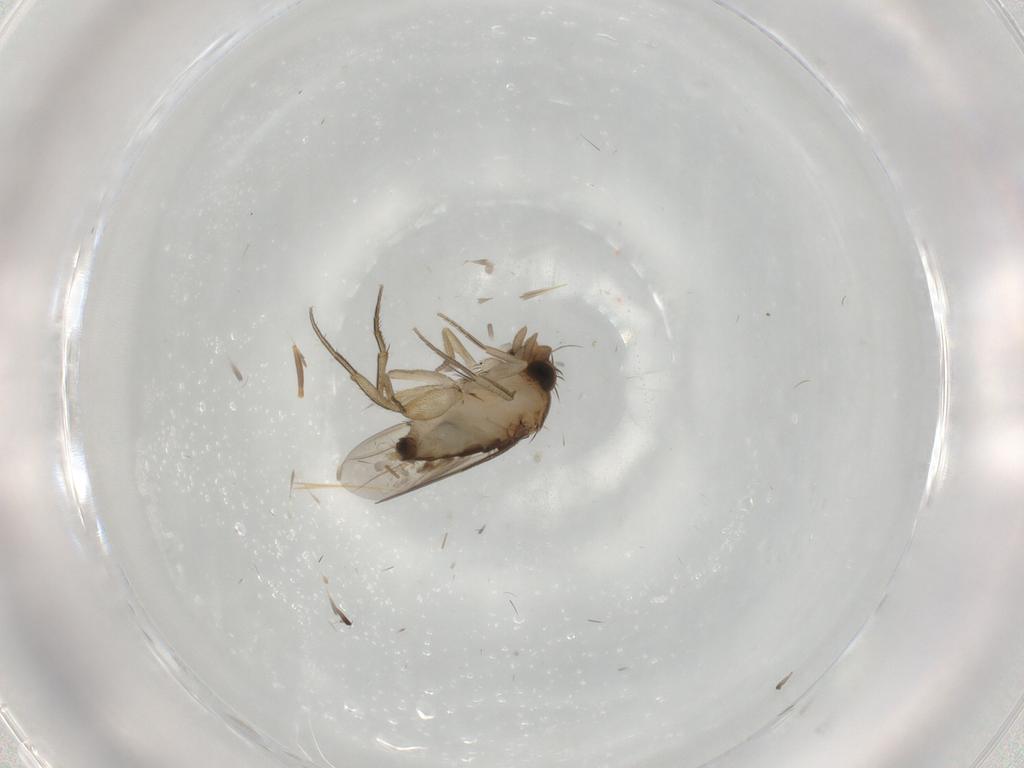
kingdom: Animalia
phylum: Arthropoda
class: Insecta
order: Diptera
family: Phoridae
